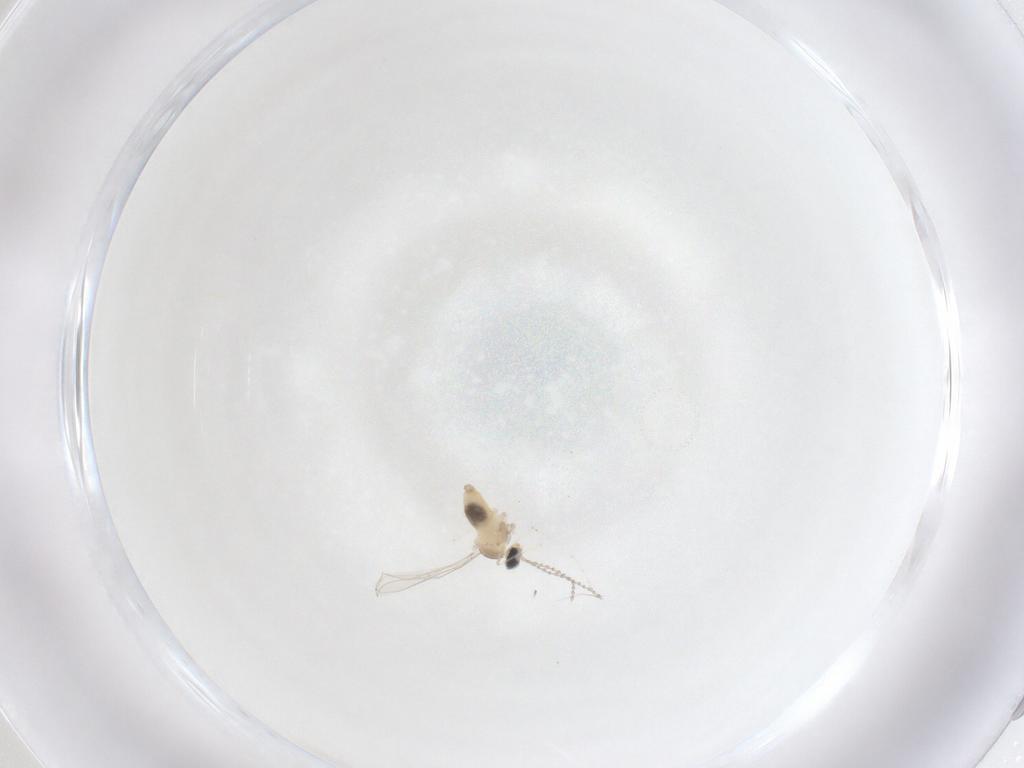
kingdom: Animalia
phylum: Arthropoda
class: Insecta
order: Diptera
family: Cecidomyiidae
